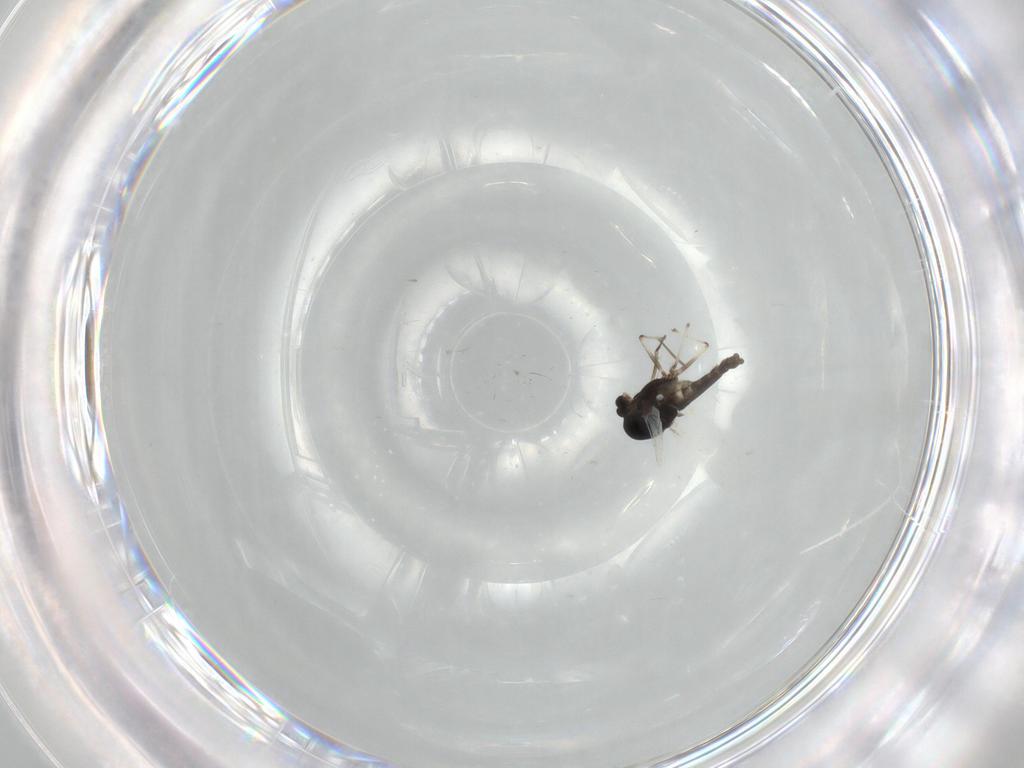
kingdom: Animalia
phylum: Arthropoda
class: Insecta
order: Diptera
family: Chironomidae
